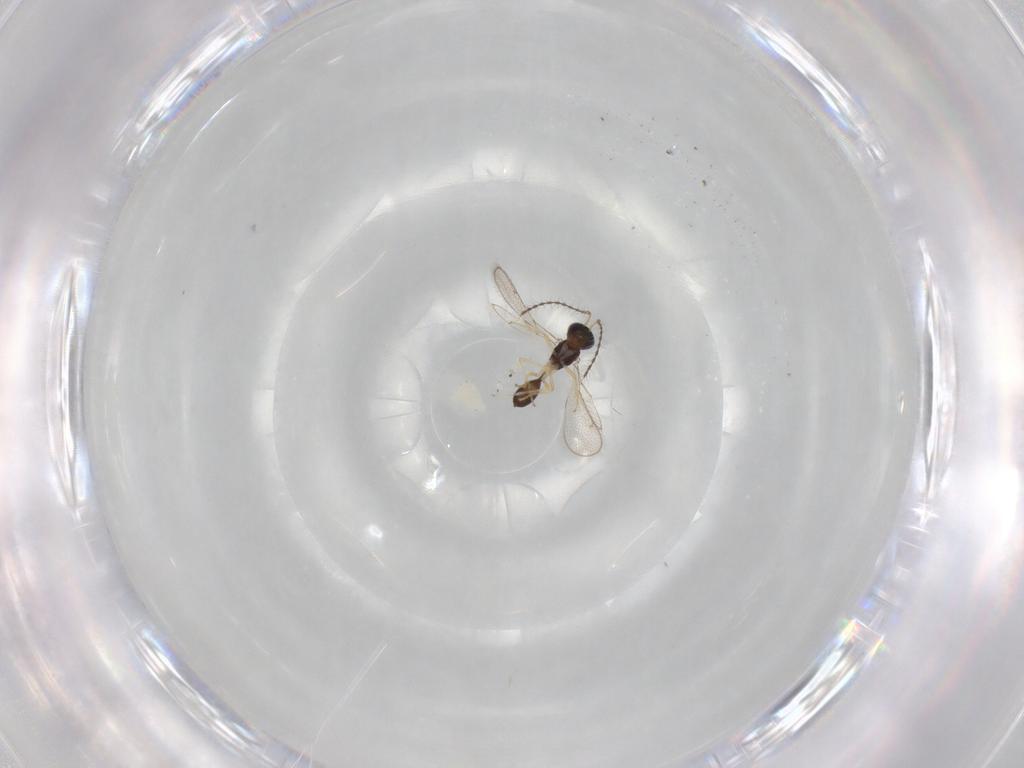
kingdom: Animalia
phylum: Arthropoda
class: Insecta
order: Hymenoptera
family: Diparidae
